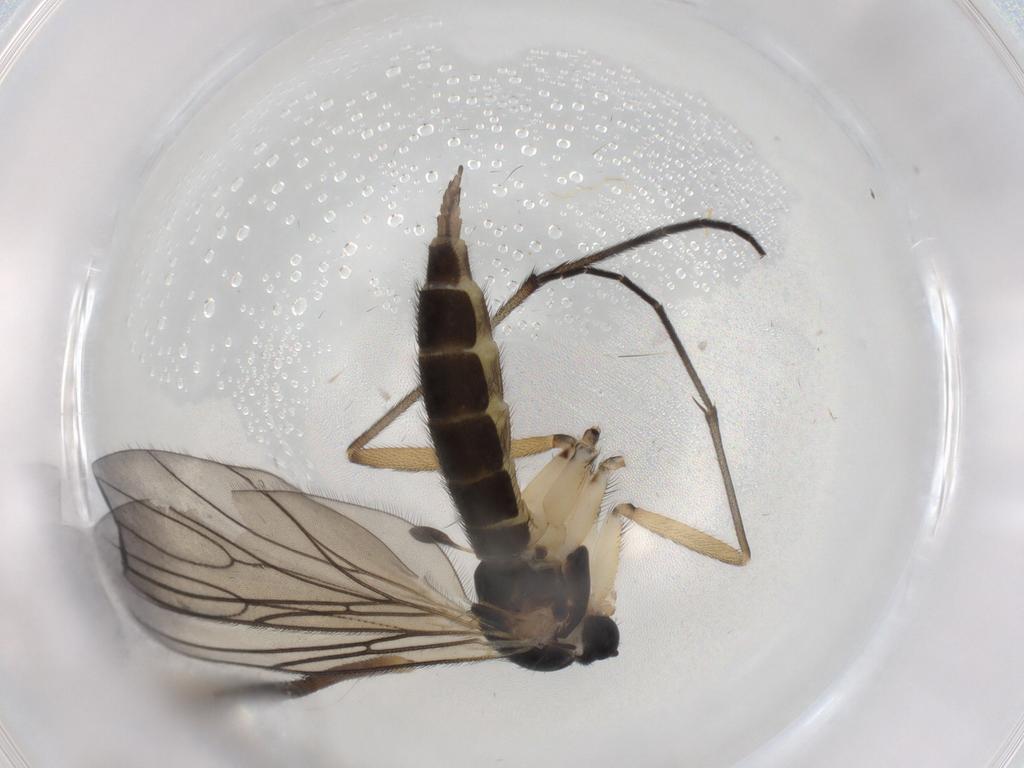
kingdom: Animalia
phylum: Arthropoda
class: Insecta
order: Diptera
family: Sciaridae
